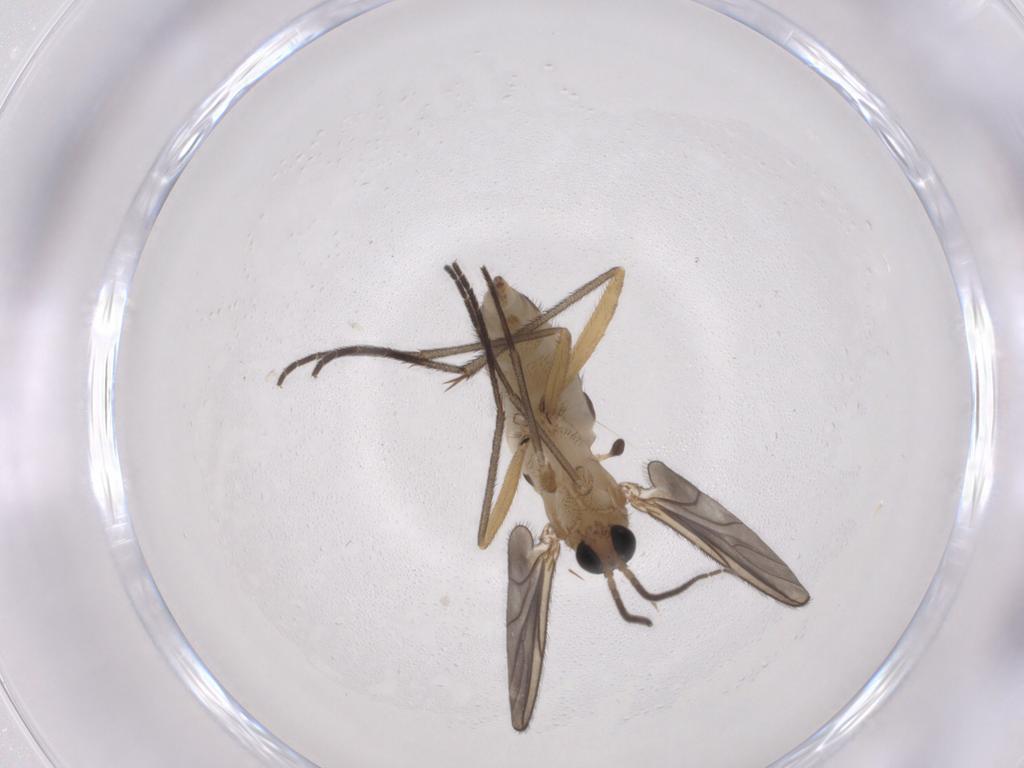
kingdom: Animalia
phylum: Arthropoda
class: Insecta
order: Diptera
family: Sciaridae
